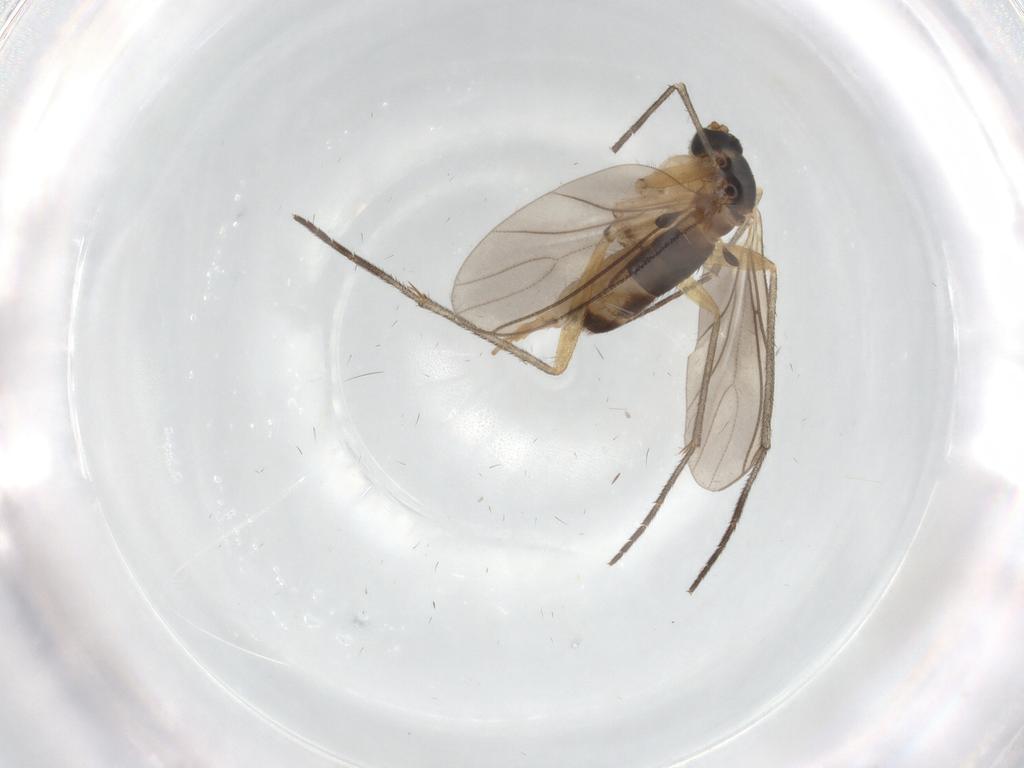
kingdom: Animalia
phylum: Arthropoda
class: Insecta
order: Diptera
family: Sciaridae
